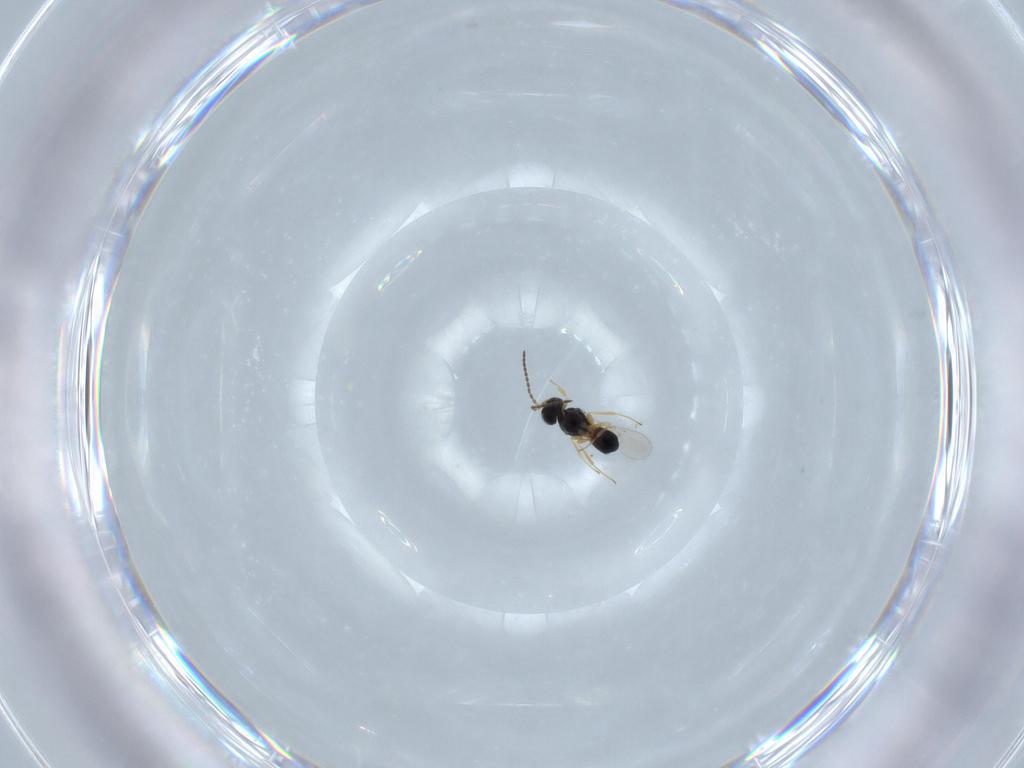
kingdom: Animalia
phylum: Arthropoda
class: Insecta
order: Hymenoptera
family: Scelionidae
